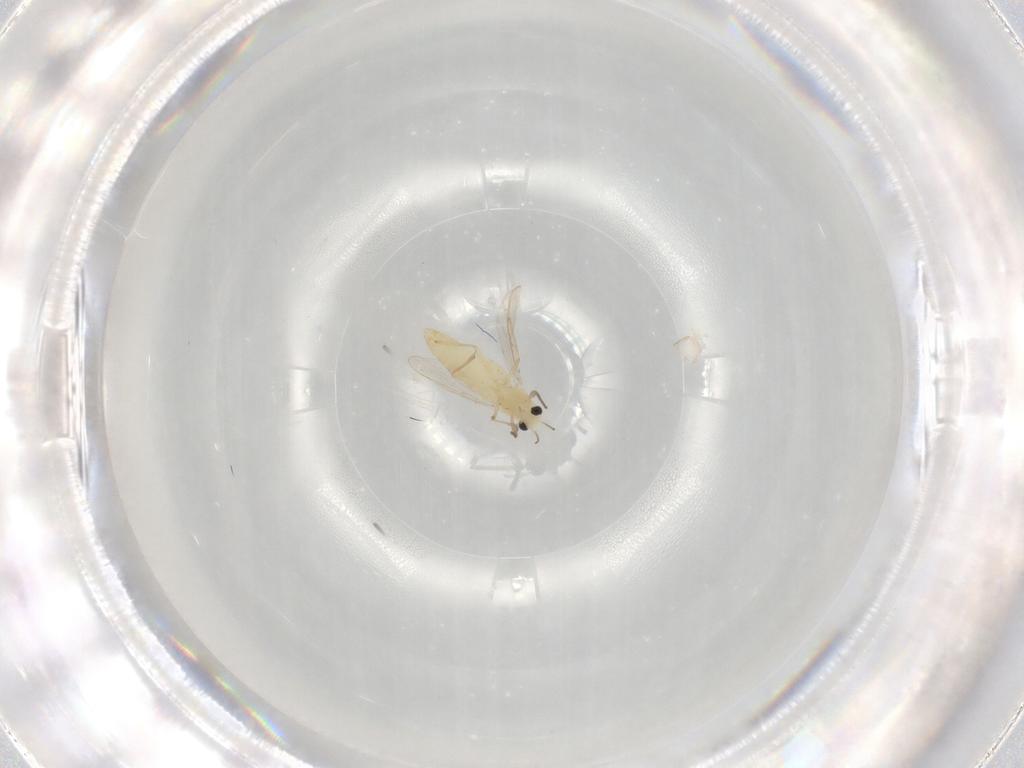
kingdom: Animalia
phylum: Arthropoda
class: Insecta
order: Diptera
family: Chironomidae
